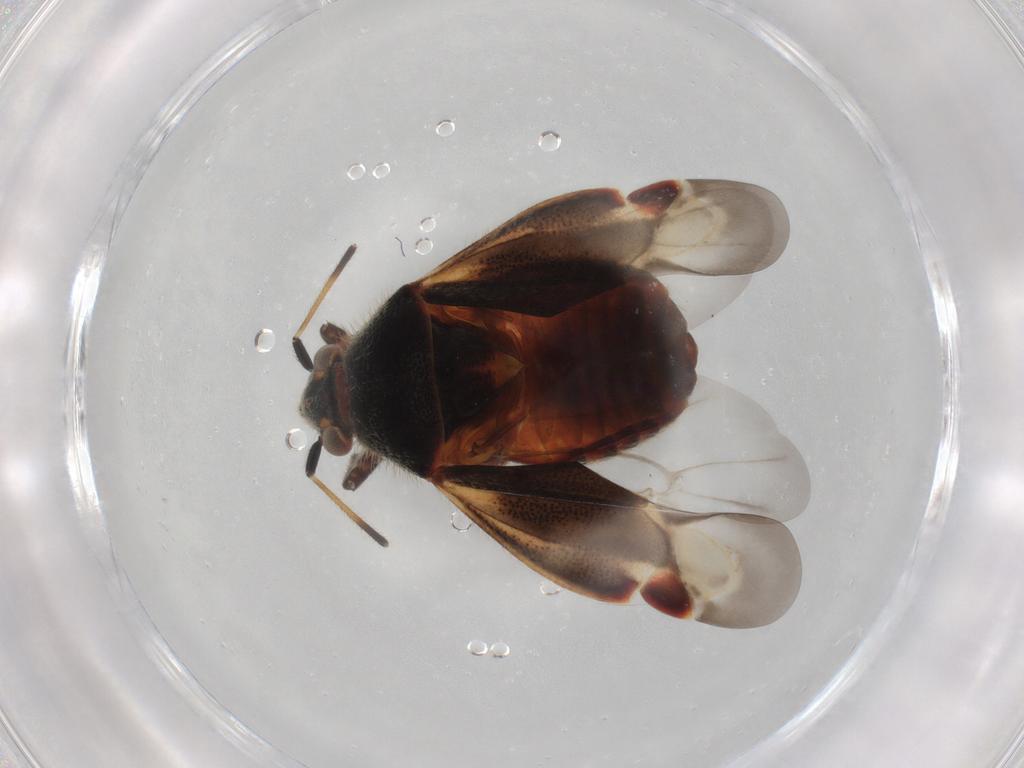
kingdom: Animalia
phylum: Arthropoda
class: Insecta
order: Hemiptera
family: Miridae
